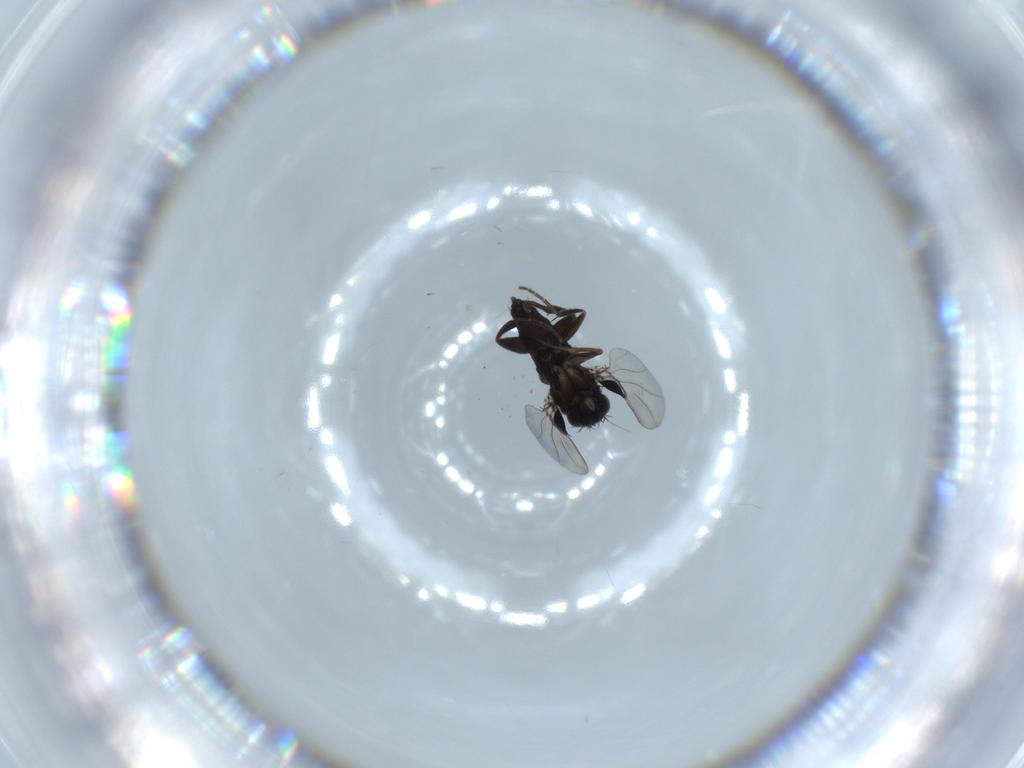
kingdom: Animalia
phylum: Arthropoda
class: Insecta
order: Diptera
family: Phoridae
